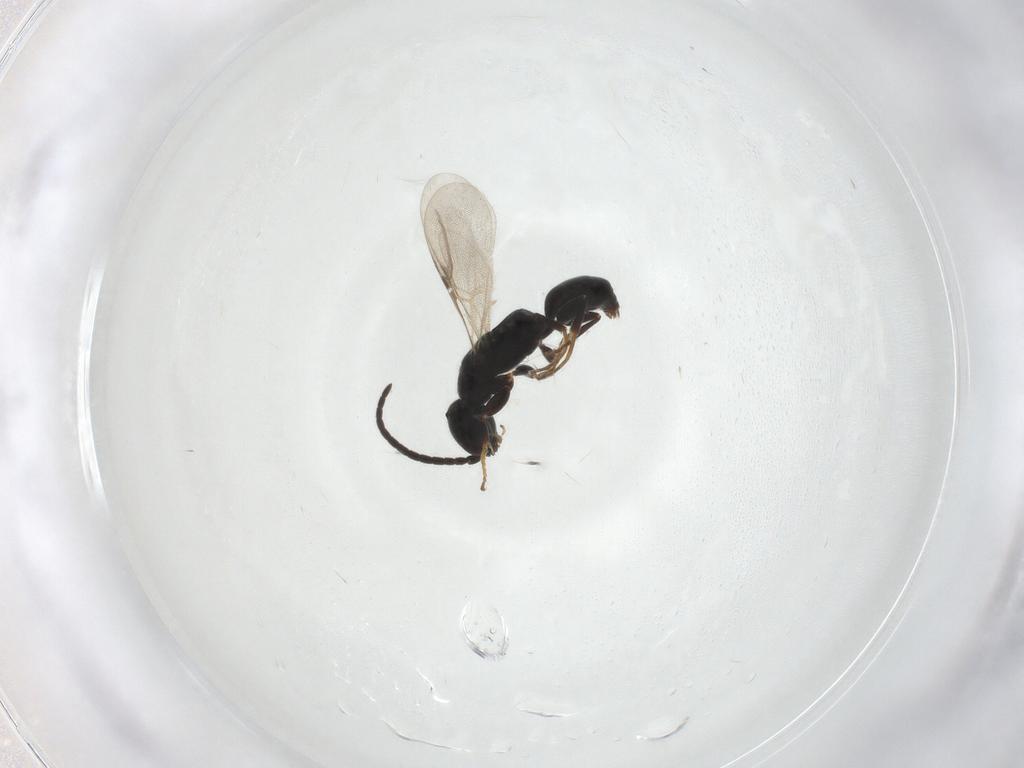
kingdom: Animalia
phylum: Arthropoda
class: Insecta
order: Hymenoptera
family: Bethylidae
